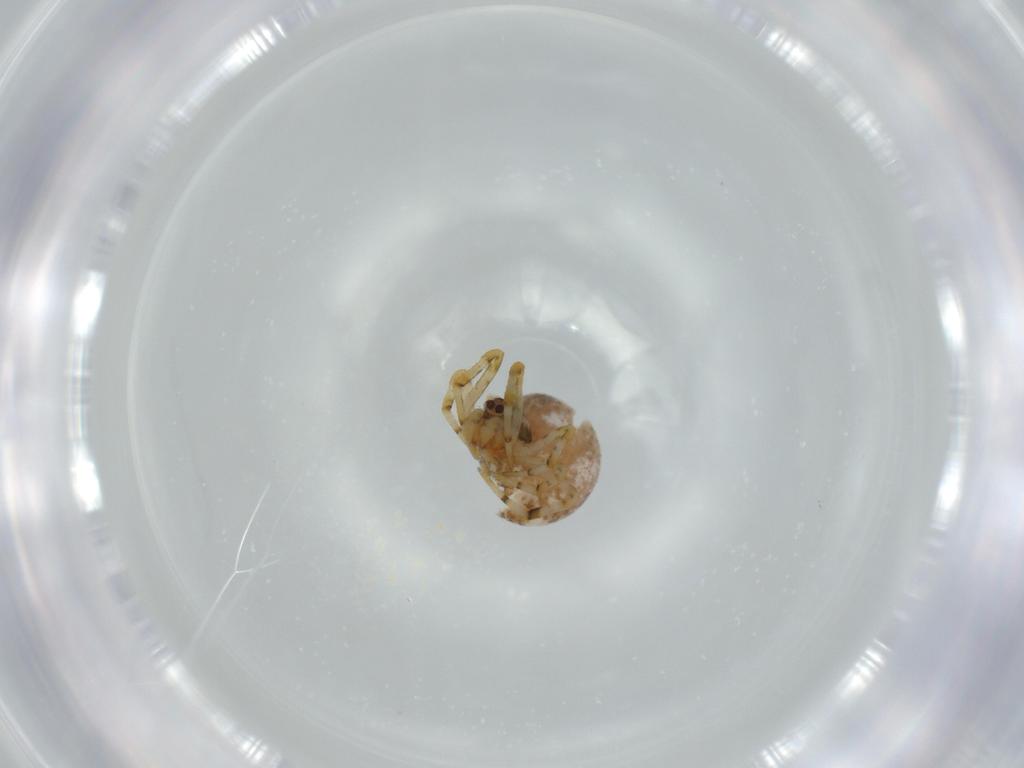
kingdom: Animalia
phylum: Arthropoda
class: Arachnida
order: Araneae
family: Theridiidae
